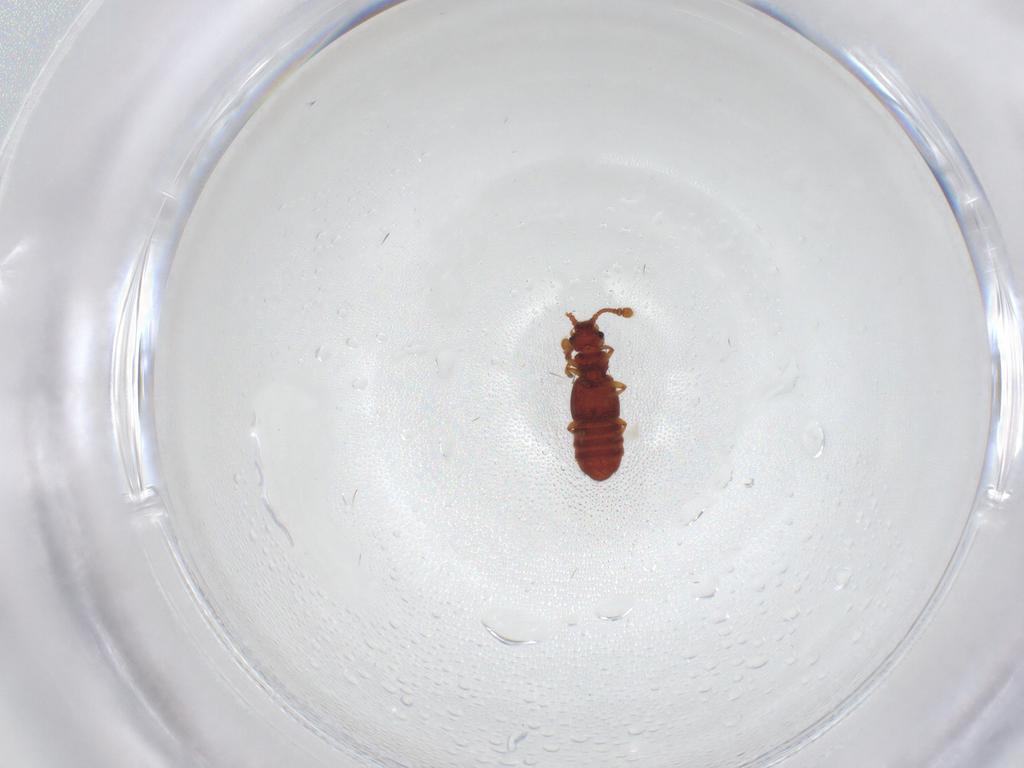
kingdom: Animalia
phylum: Arthropoda
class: Insecta
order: Coleoptera
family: Staphylinidae
